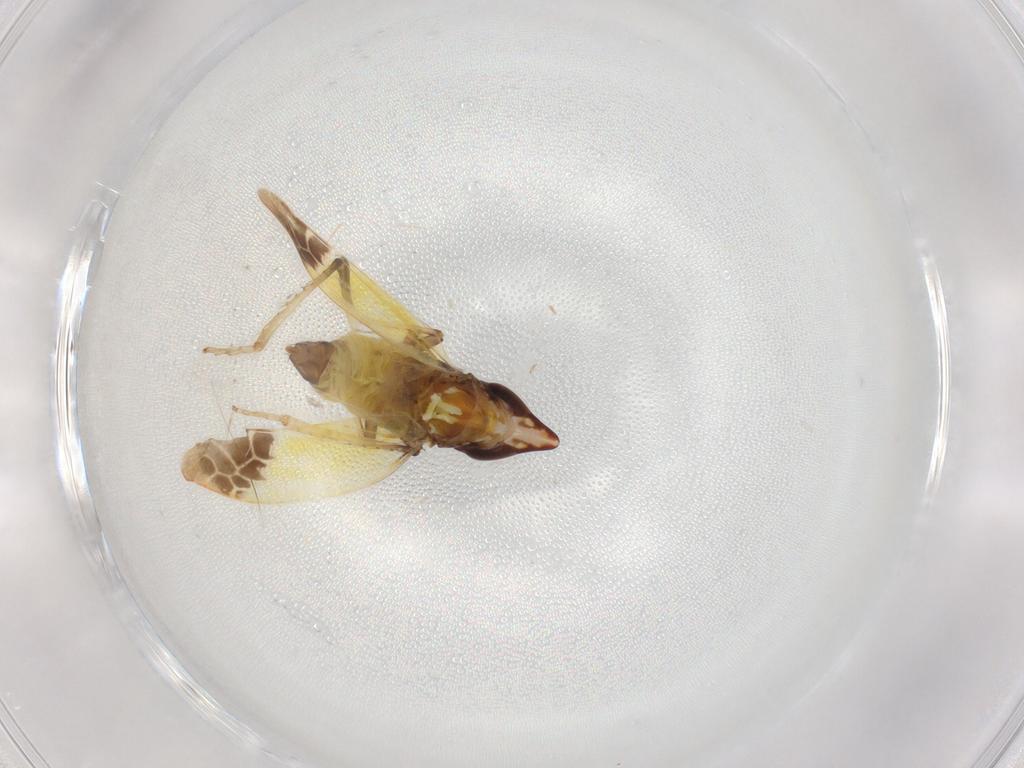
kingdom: Animalia
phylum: Arthropoda
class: Insecta
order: Hemiptera
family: Cicadellidae
